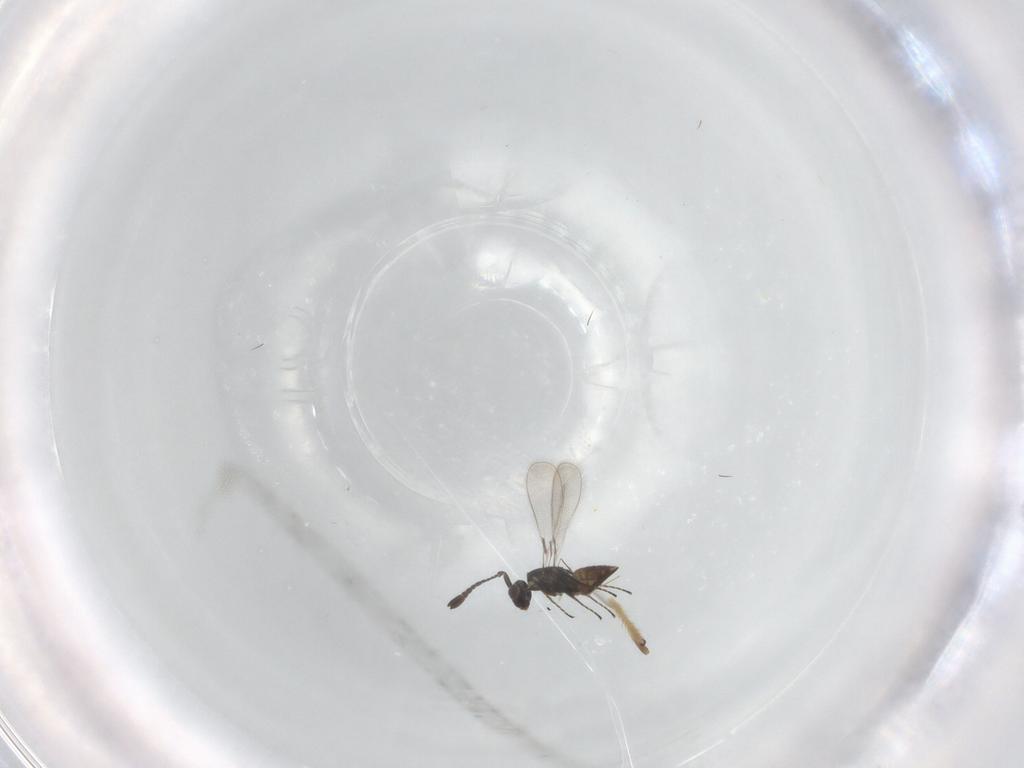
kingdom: Animalia
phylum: Arthropoda
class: Insecta
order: Hymenoptera
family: Mymaridae
